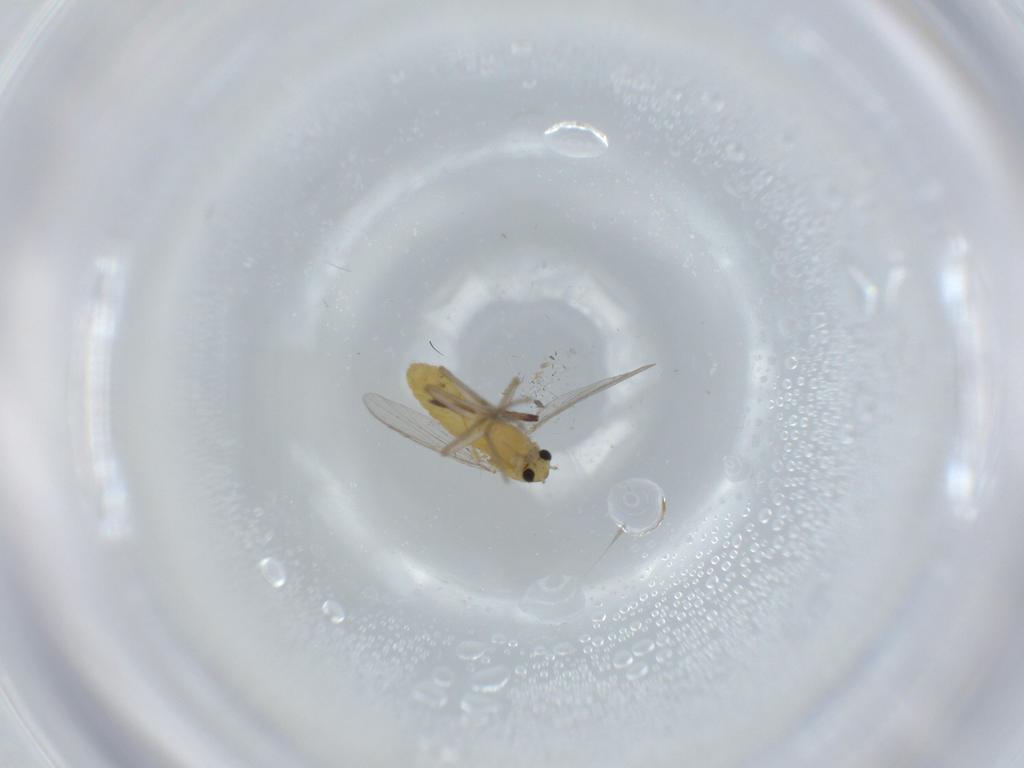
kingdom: Animalia
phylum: Arthropoda
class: Insecta
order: Diptera
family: Chironomidae
